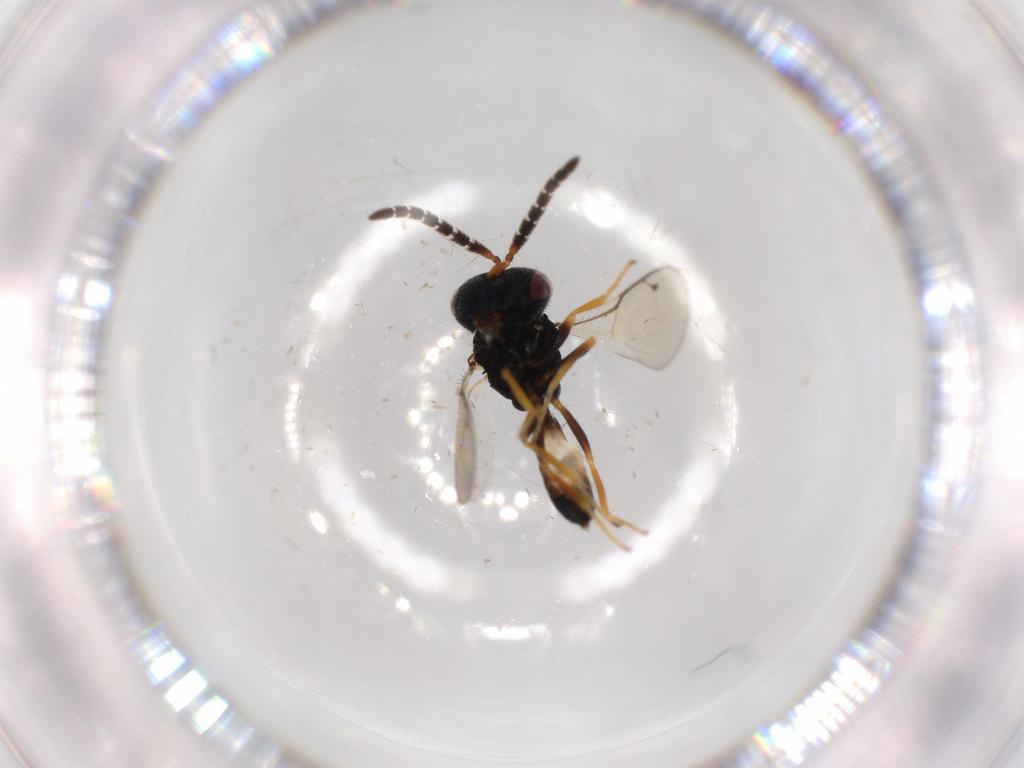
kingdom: Animalia
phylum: Arthropoda
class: Insecta
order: Hymenoptera
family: Agaonidae
